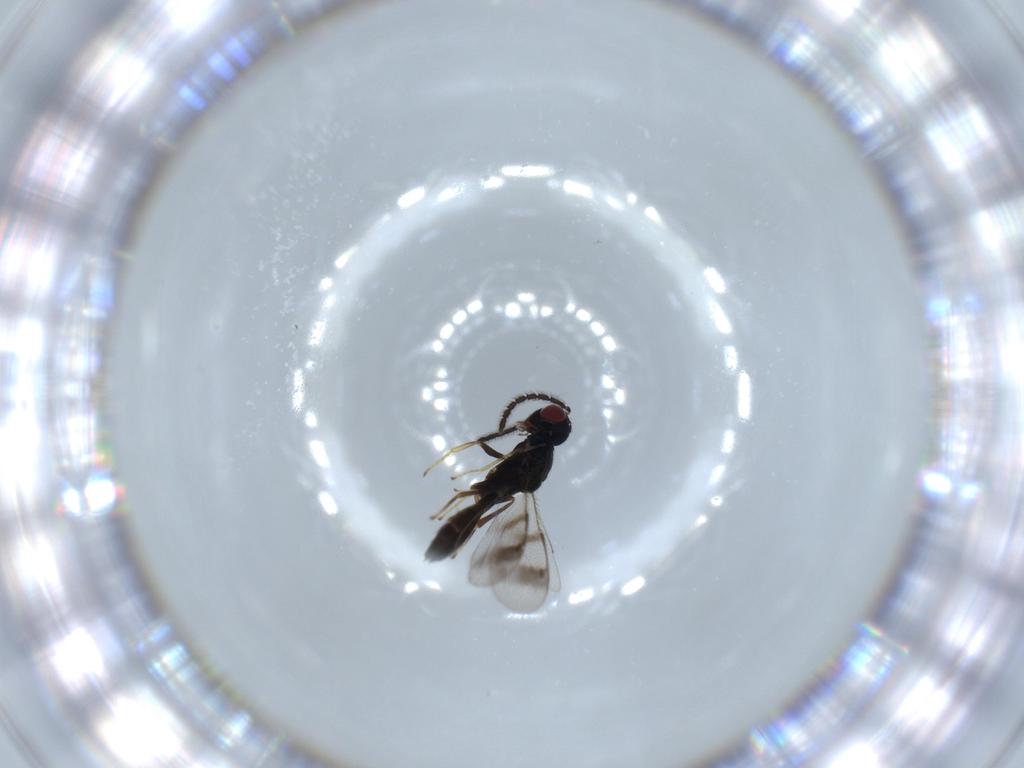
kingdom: Animalia
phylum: Arthropoda
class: Insecta
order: Hymenoptera
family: Pteromalidae
